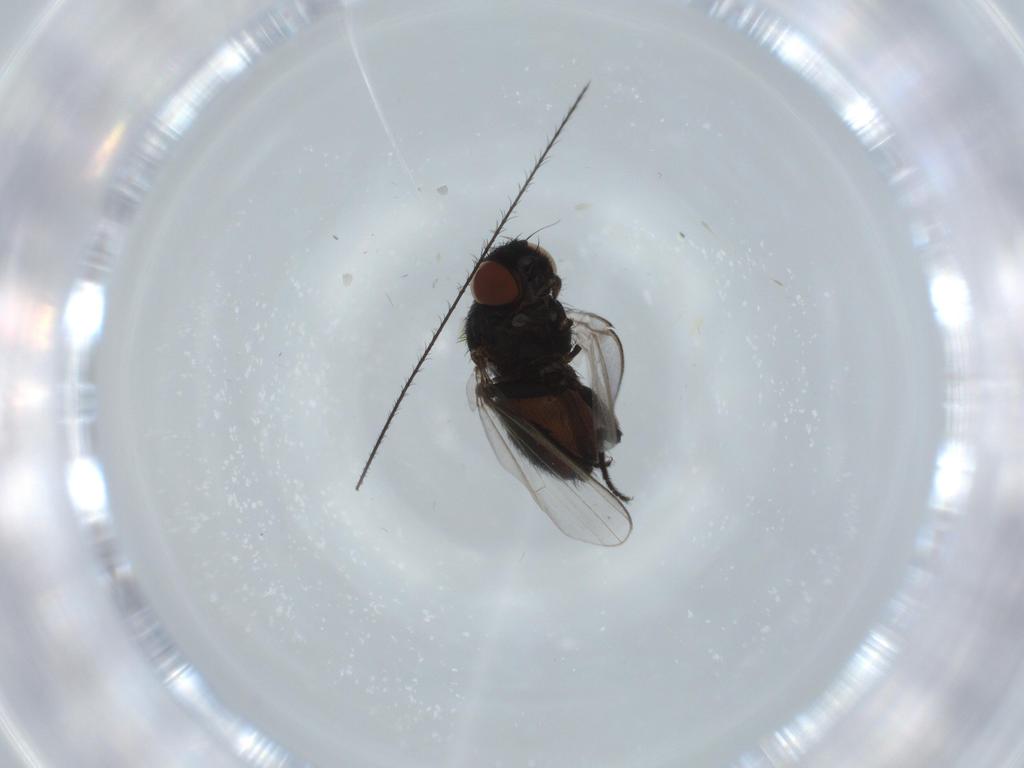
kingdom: Animalia
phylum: Arthropoda
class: Insecta
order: Diptera
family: Milichiidae
